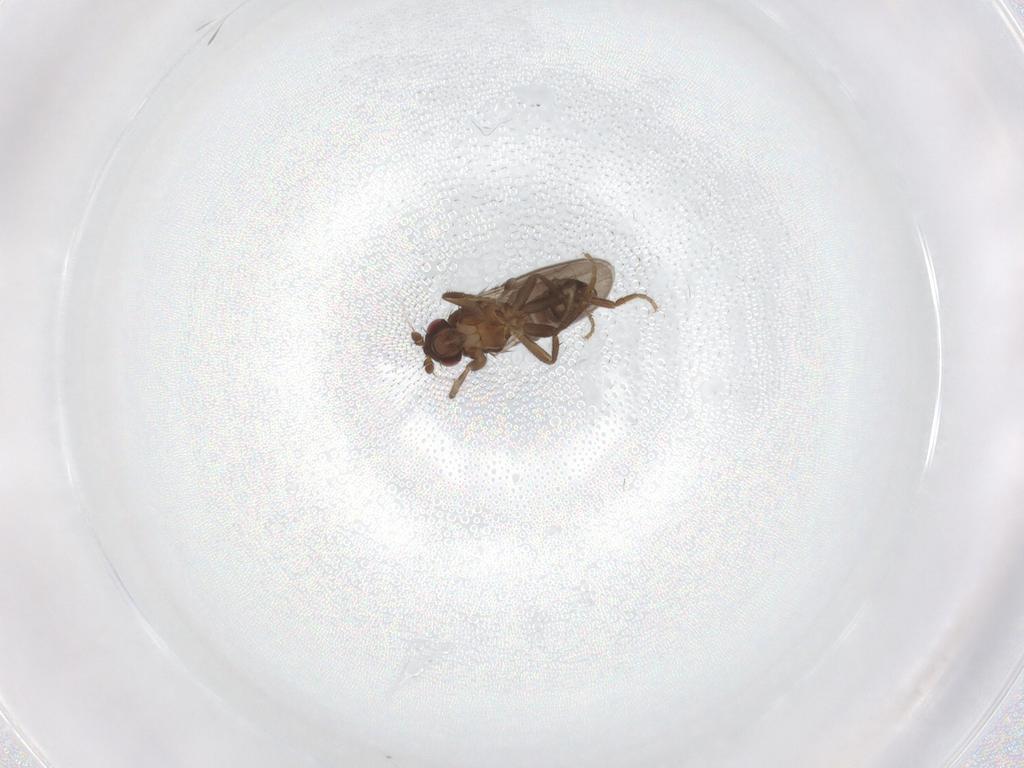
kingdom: Animalia
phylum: Arthropoda
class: Insecta
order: Diptera
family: Cecidomyiidae
